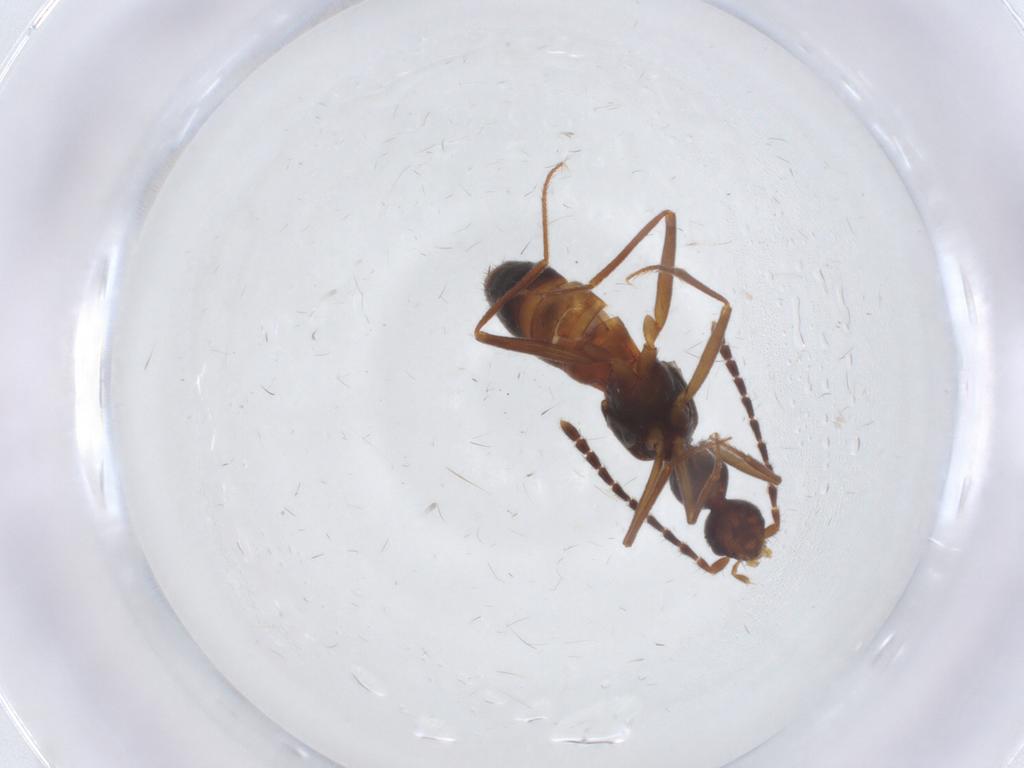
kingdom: Animalia
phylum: Arthropoda
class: Insecta
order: Coleoptera
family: Staphylinidae
